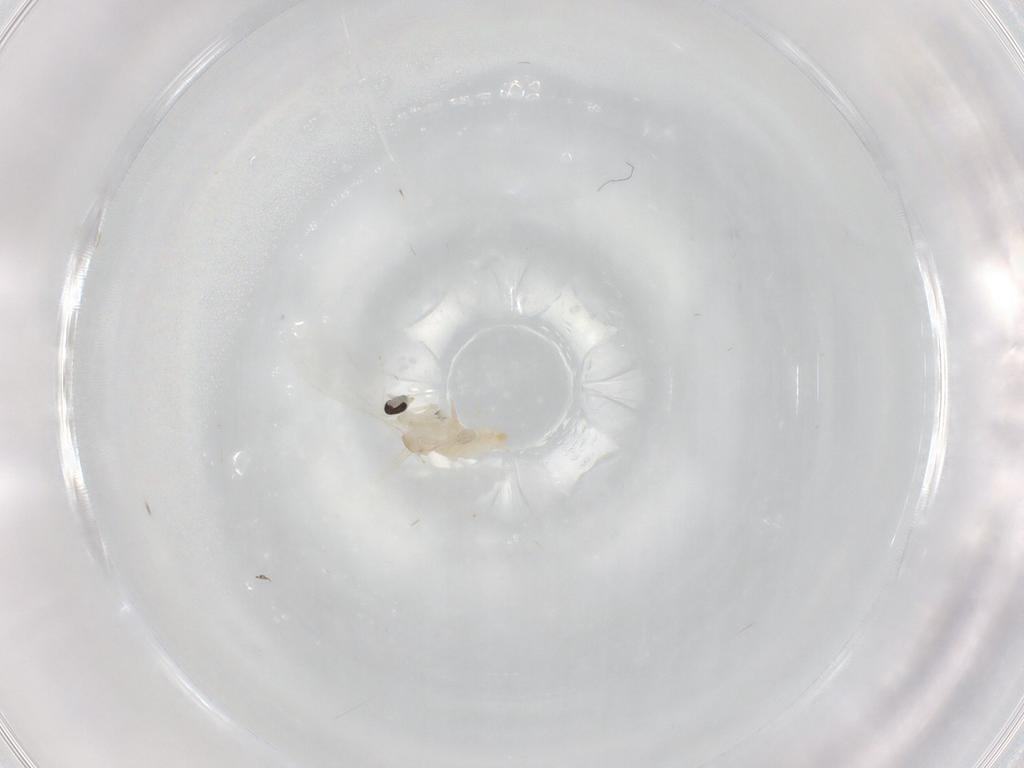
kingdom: Animalia
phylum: Arthropoda
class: Insecta
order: Diptera
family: Cecidomyiidae
